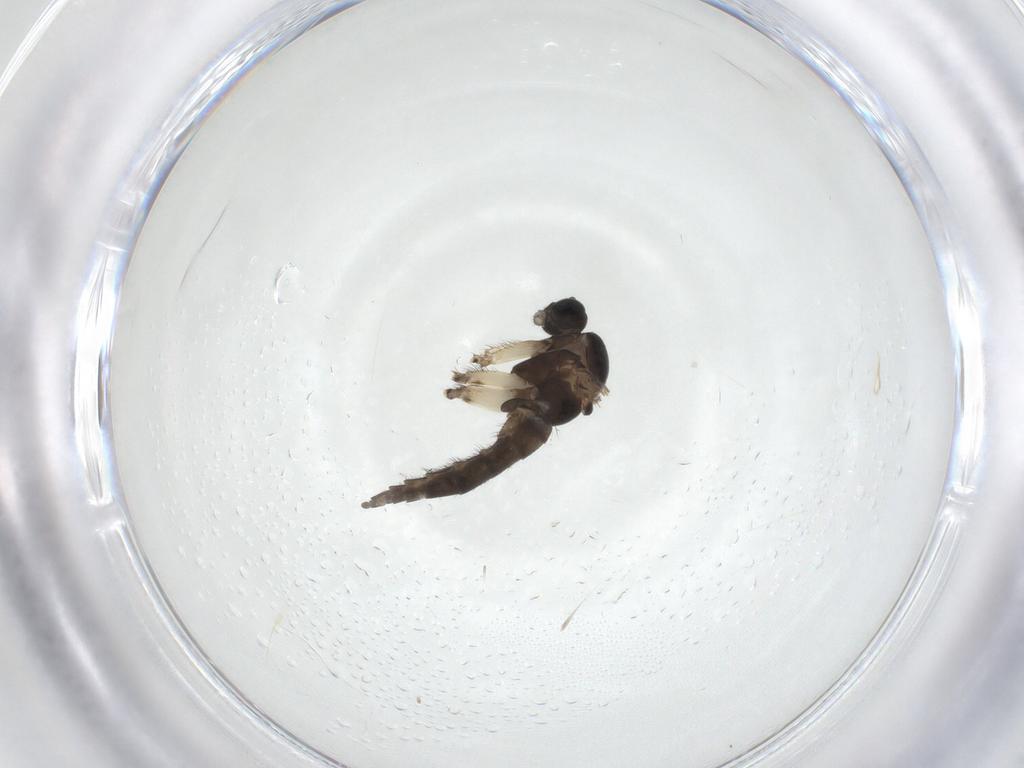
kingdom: Animalia
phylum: Arthropoda
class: Insecta
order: Diptera
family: Sciaridae
